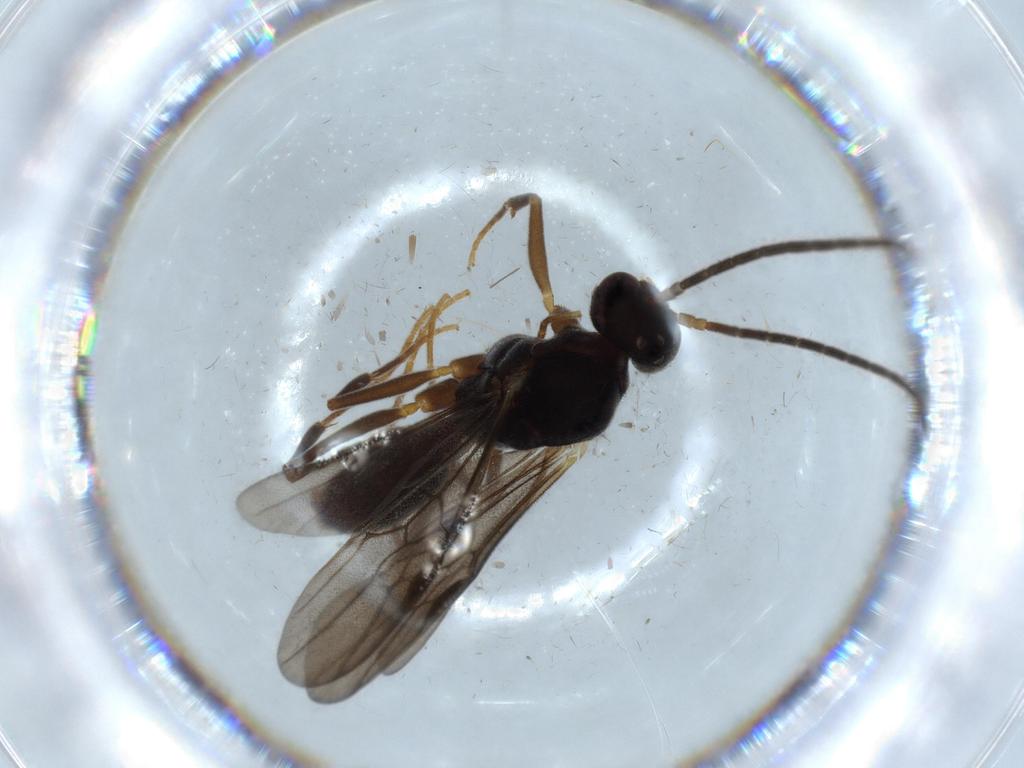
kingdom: Animalia
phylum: Arthropoda
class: Insecta
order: Hymenoptera
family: Formicidae
